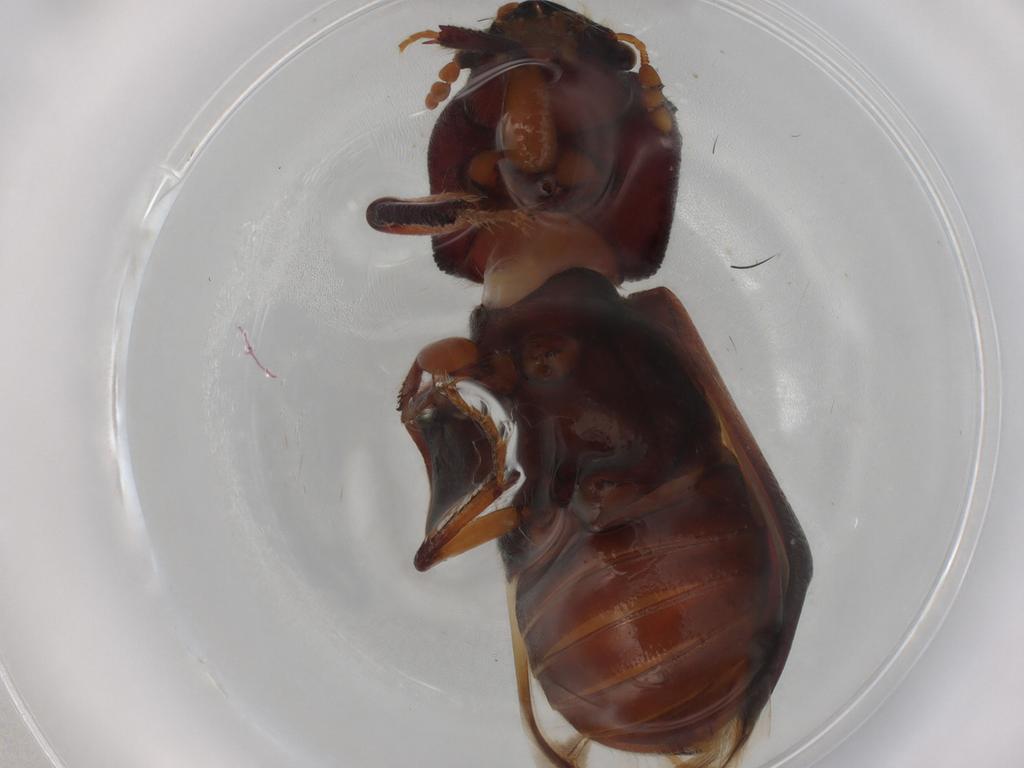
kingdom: Animalia
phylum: Arthropoda
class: Insecta
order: Coleoptera
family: Bostrichidae
